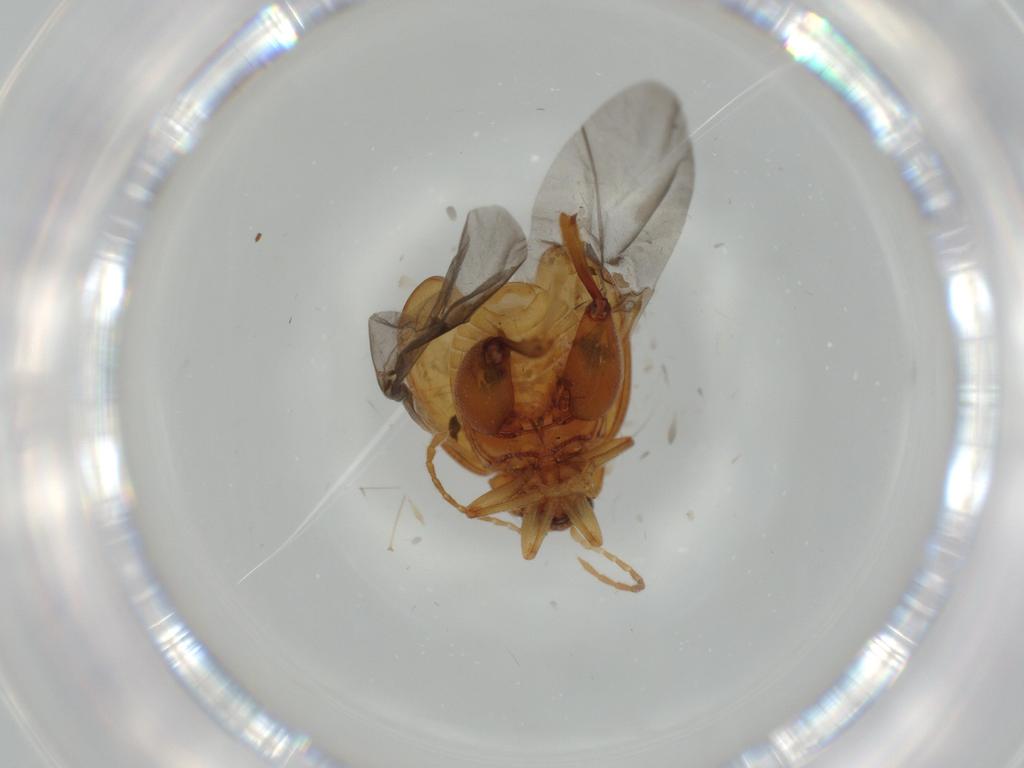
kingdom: Animalia
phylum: Arthropoda
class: Insecta
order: Coleoptera
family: Chrysomelidae
